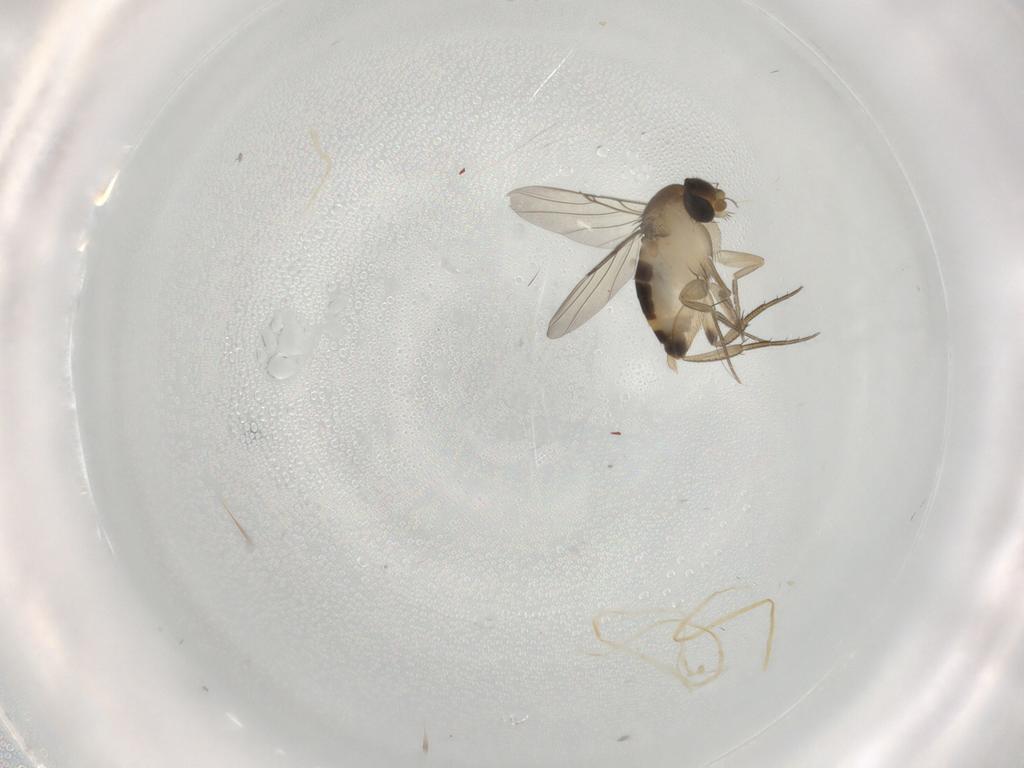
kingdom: Animalia
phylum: Arthropoda
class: Insecta
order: Diptera
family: Phoridae
